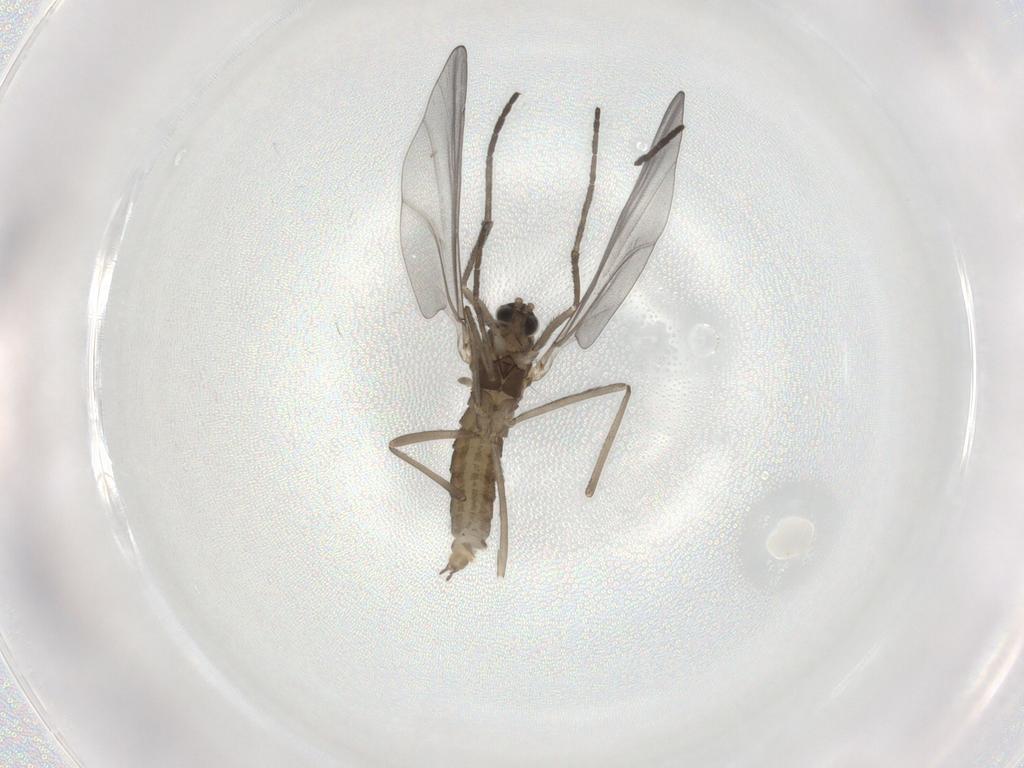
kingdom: Animalia
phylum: Arthropoda
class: Insecta
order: Diptera
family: Cecidomyiidae
